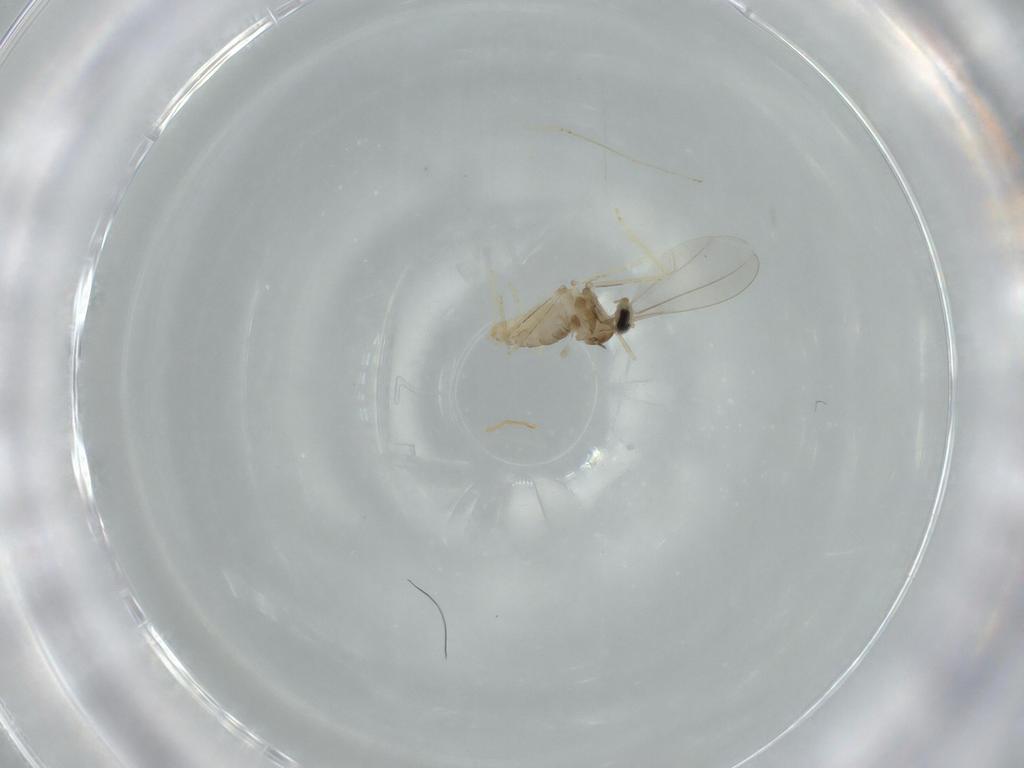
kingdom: Animalia
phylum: Arthropoda
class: Insecta
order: Diptera
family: Cecidomyiidae
